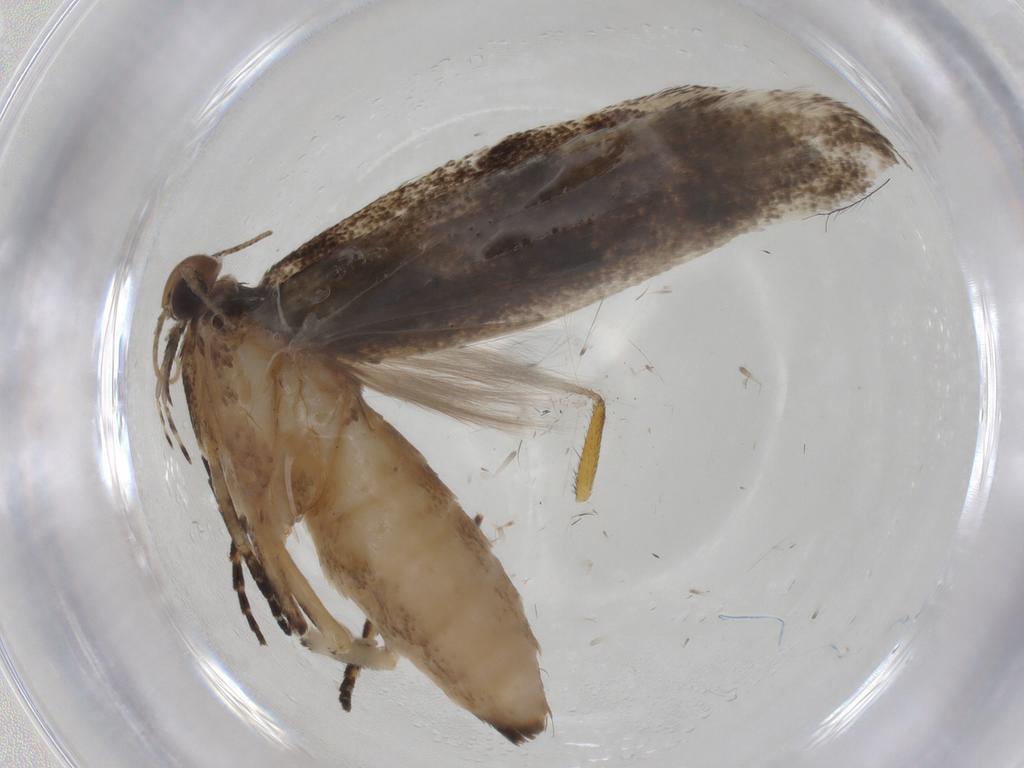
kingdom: Animalia
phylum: Arthropoda
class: Insecta
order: Lepidoptera
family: Gelechiidae
